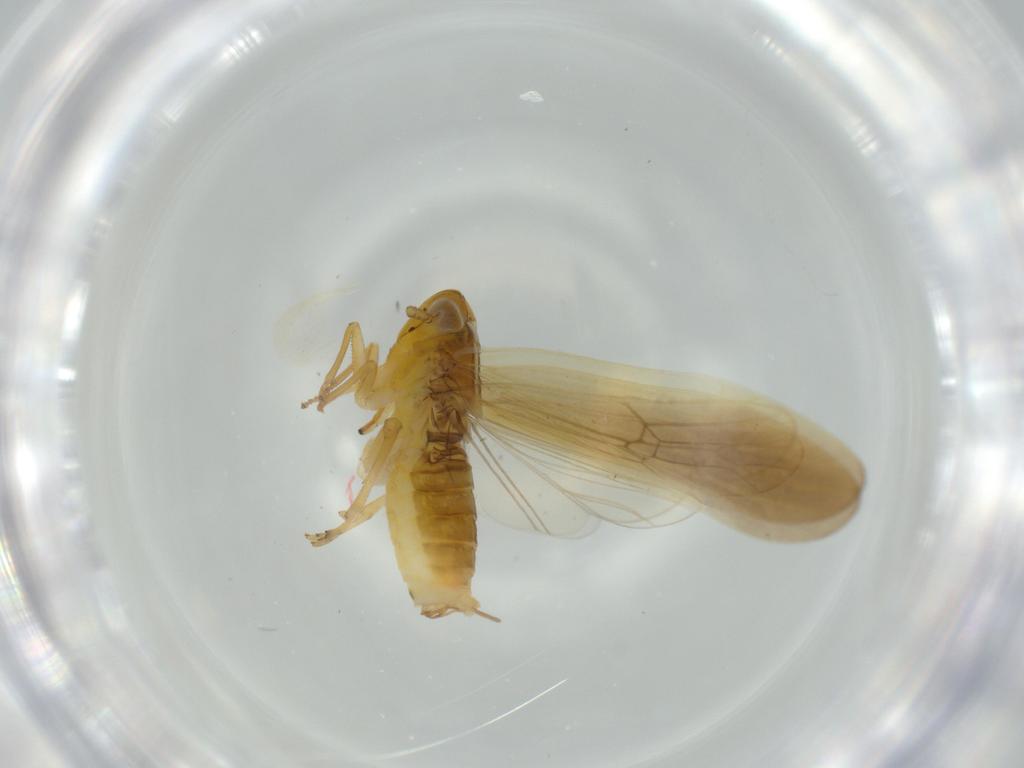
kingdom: Animalia
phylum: Arthropoda
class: Insecta
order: Hemiptera
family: Delphacidae
